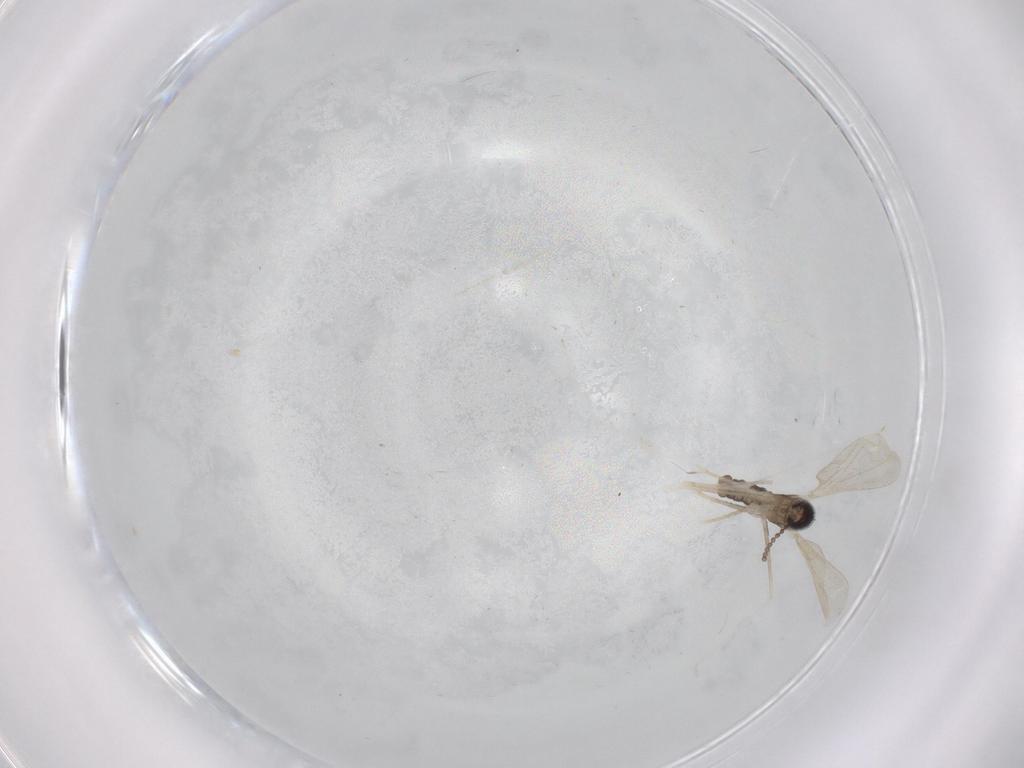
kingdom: Animalia
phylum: Arthropoda
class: Insecta
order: Diptera
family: Cecidomyiidae
